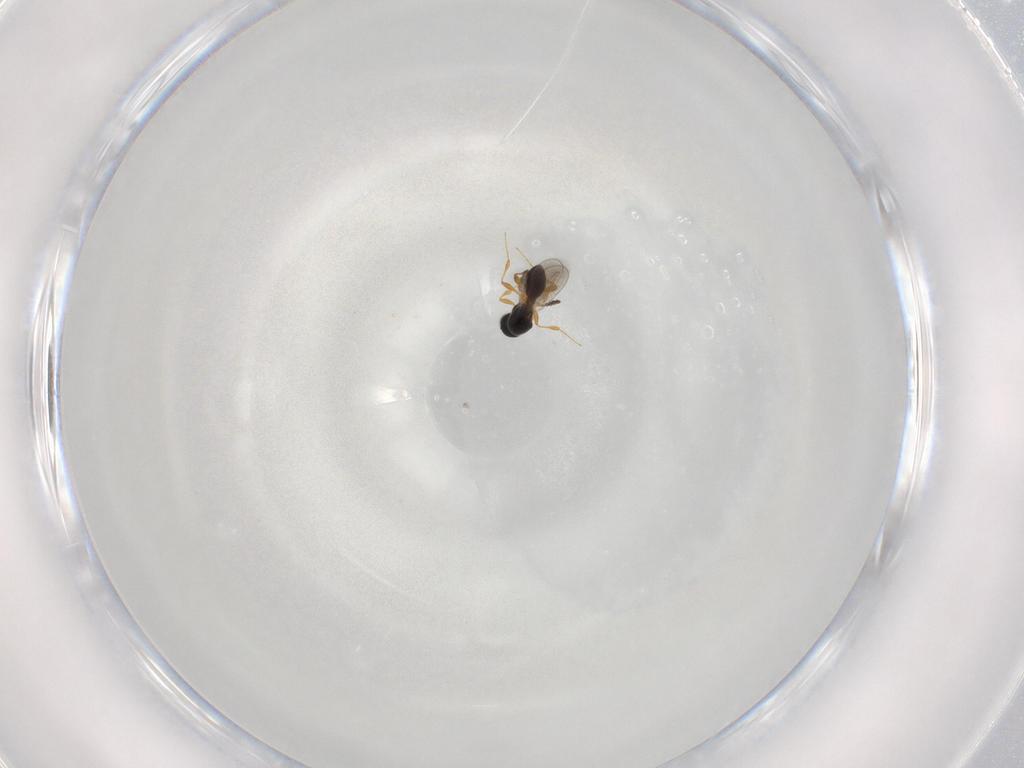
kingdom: Animalia
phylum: Arthropoda
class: Insecta
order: Hymenoptera
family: Platygastridae
